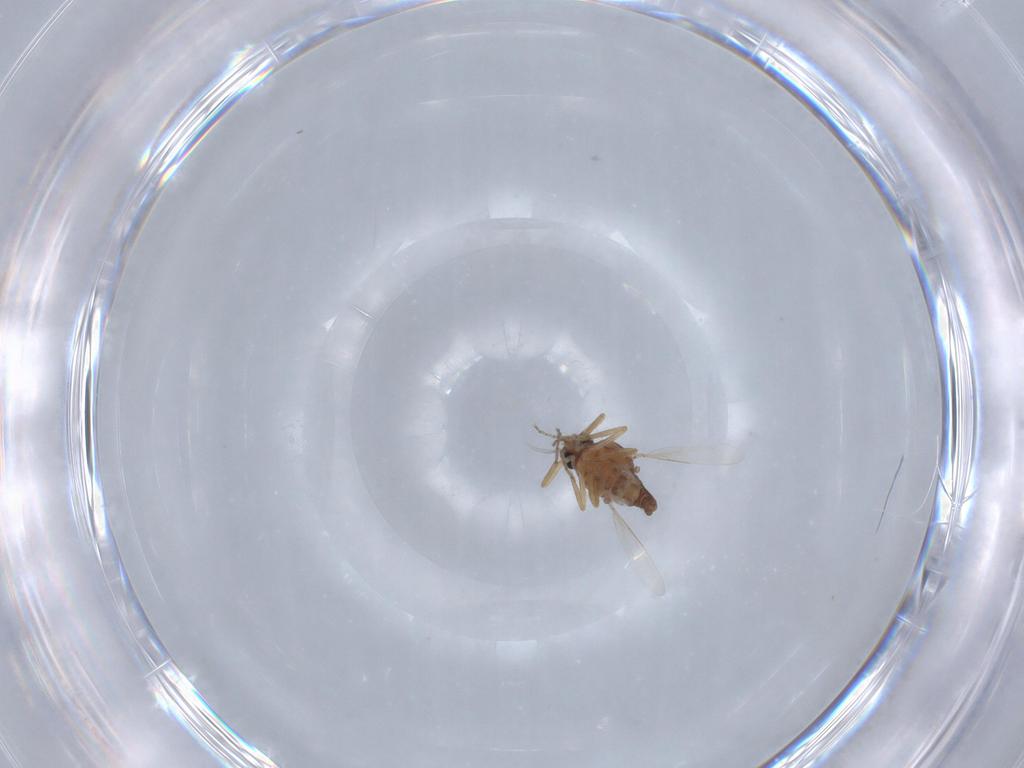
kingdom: Animalia
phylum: Arthropoda
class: Insecta
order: Diptera
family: Ceratopogonidae
